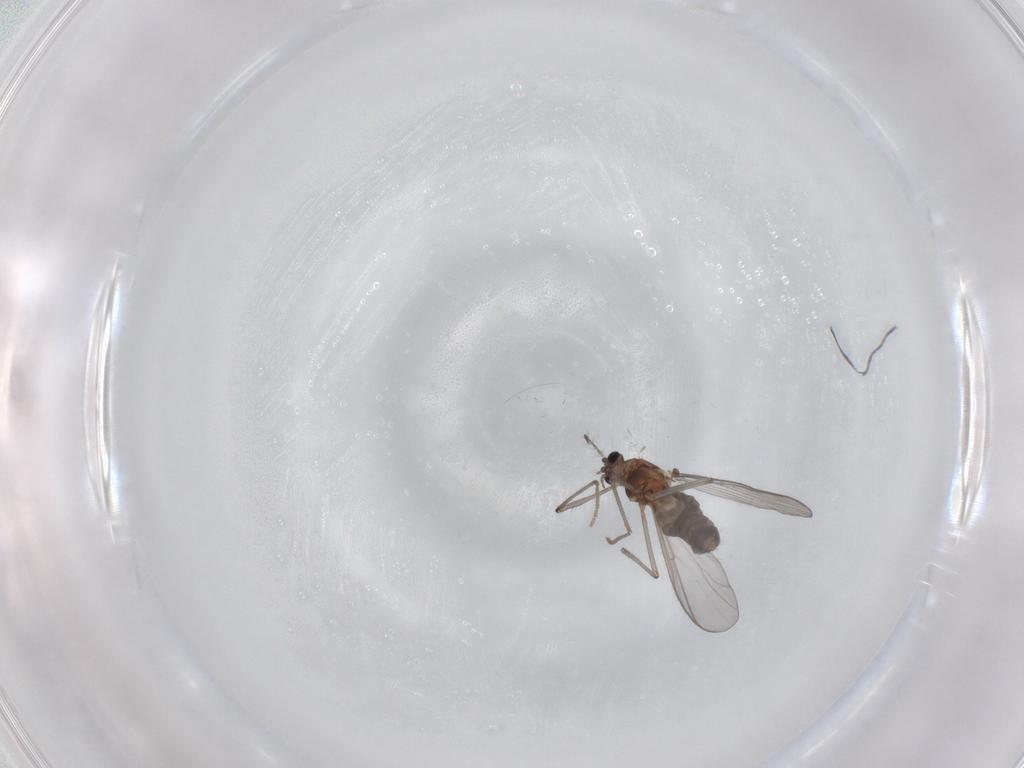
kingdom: Animalia
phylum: Arthropoda
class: Insecta
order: Diptera
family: Chironomidae
